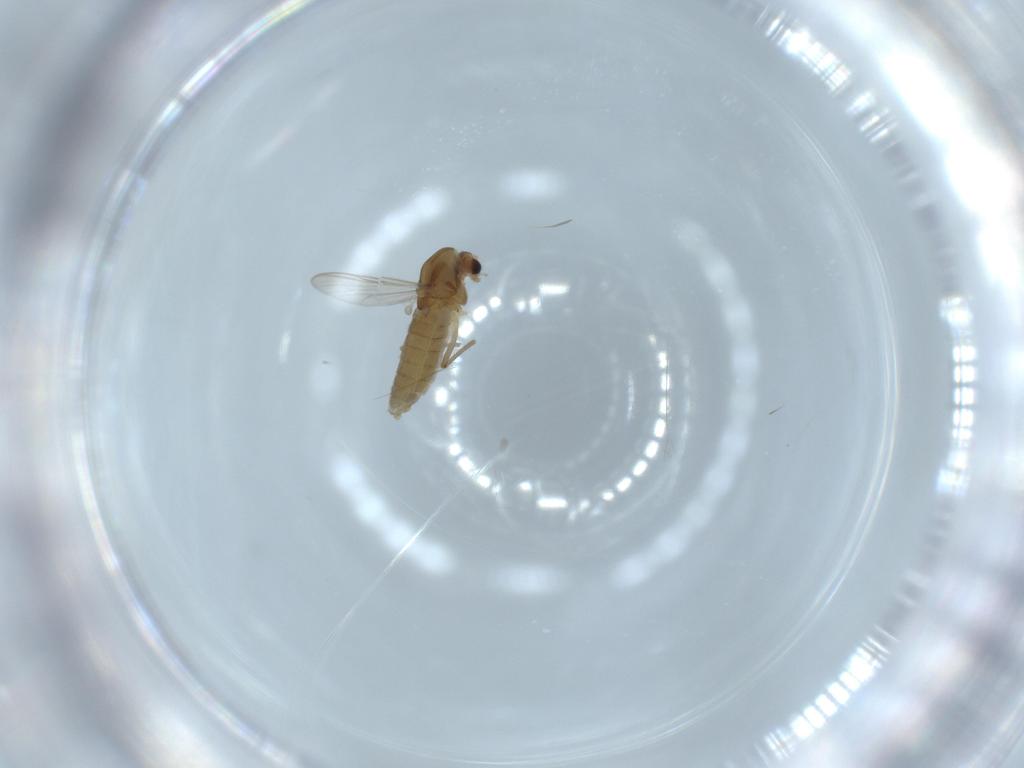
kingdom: Animalia
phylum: Arthropoda
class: Insecta
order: Diptera
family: Chironomidae
